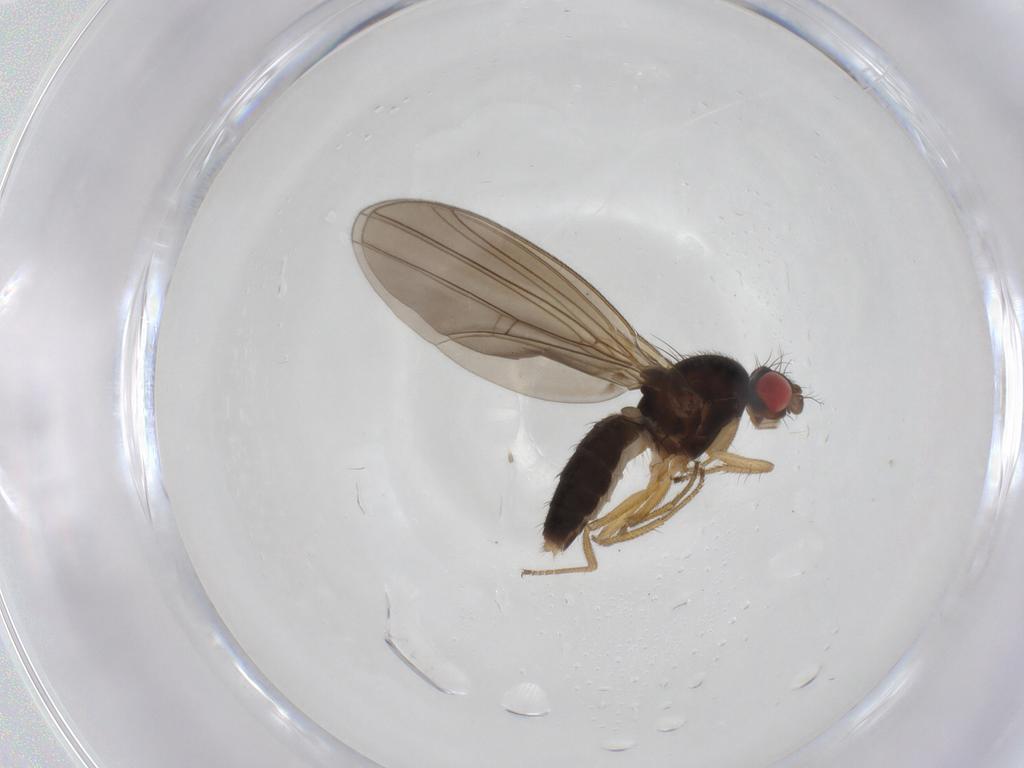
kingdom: Animalia
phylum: Arthropoda
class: Insecta
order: Diptera
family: Drosophilidae
